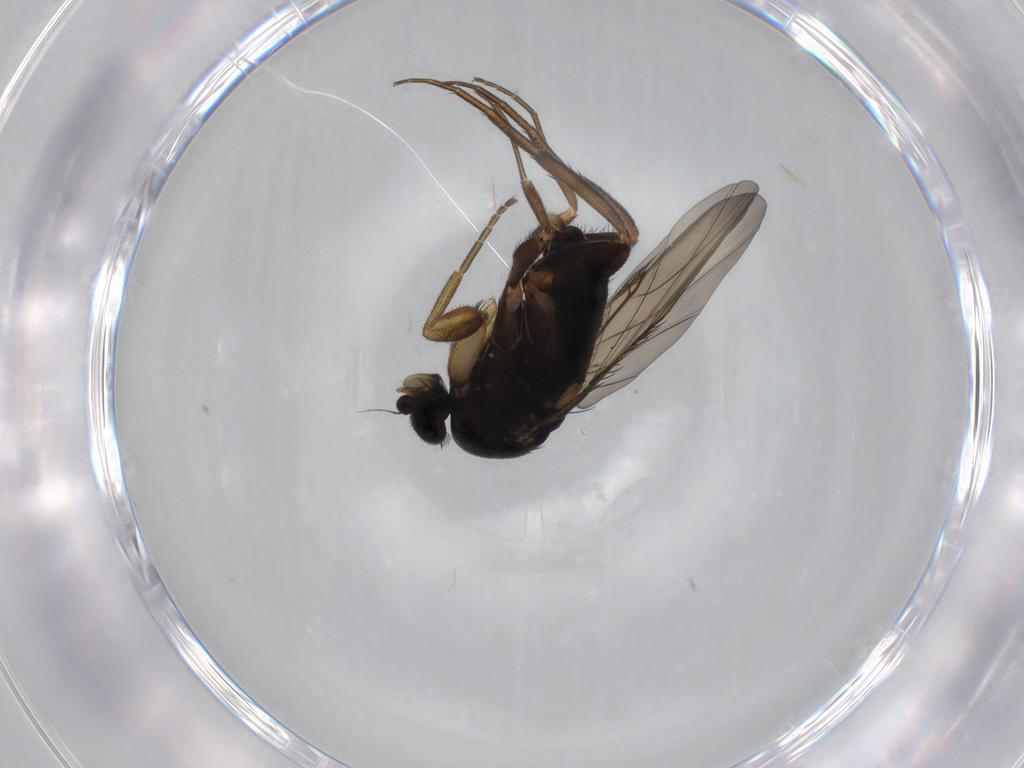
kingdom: Animalia
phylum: Arthropoda
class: Insecta
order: Diptera
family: Phoridae
